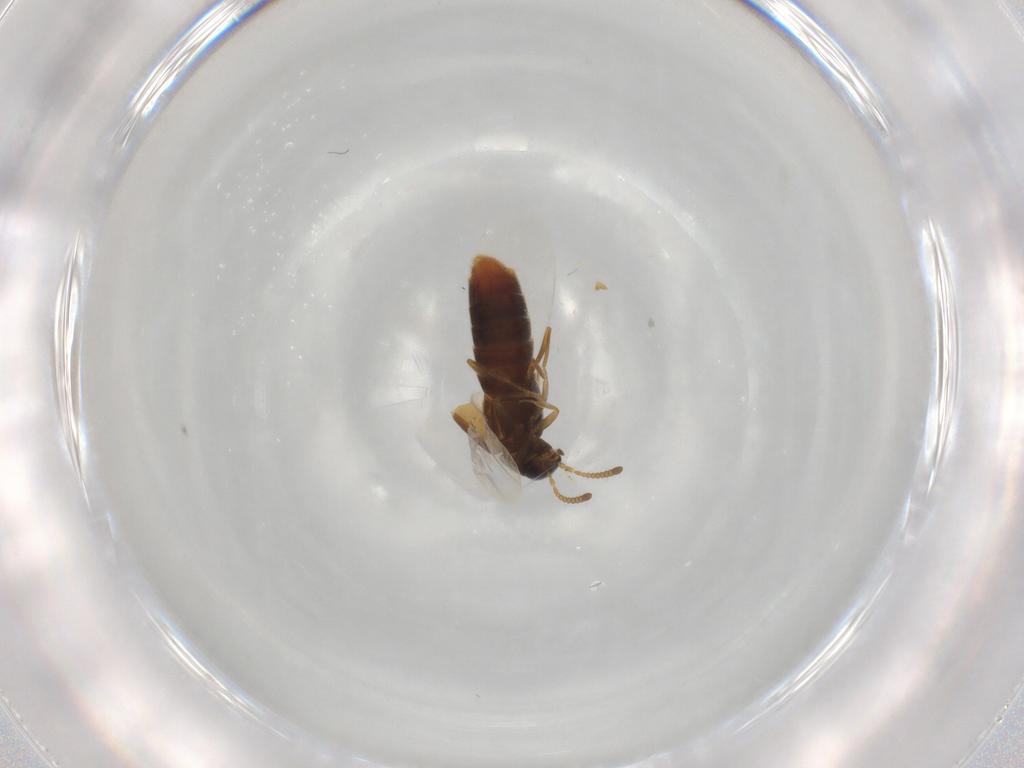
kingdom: Animalia
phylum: Arthropoda
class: Insecta
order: Coleoptera
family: Staphylinidae
